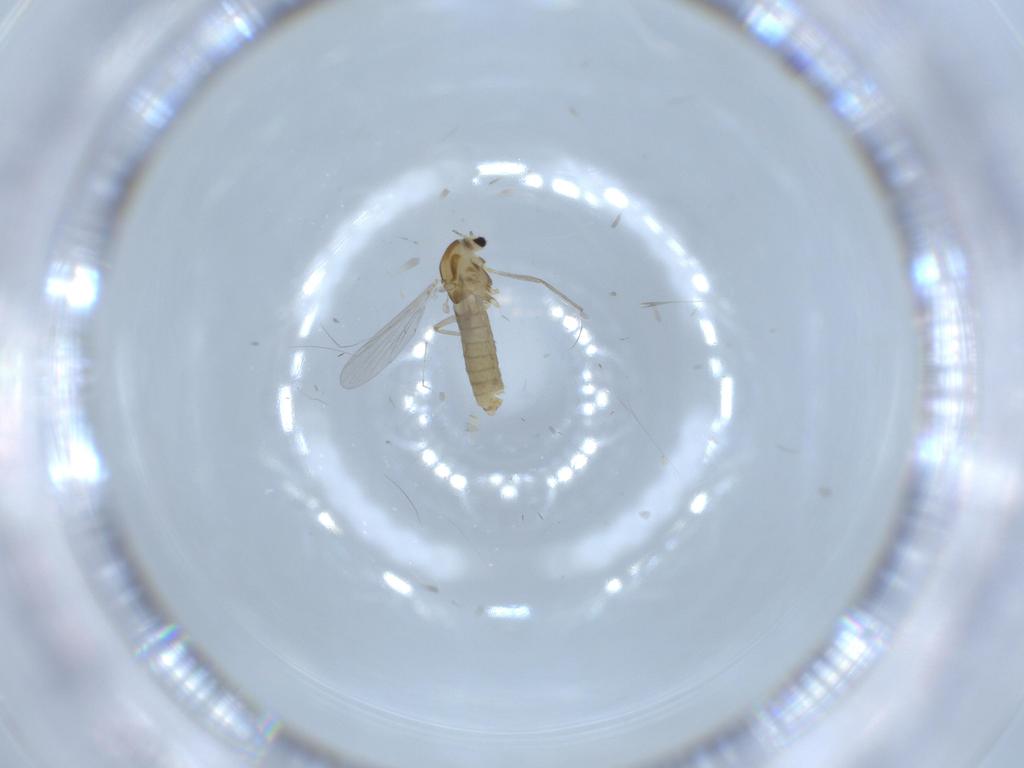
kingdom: Animalia
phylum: Arthropoda
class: Insecta
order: Diptera
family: Chironomidae
